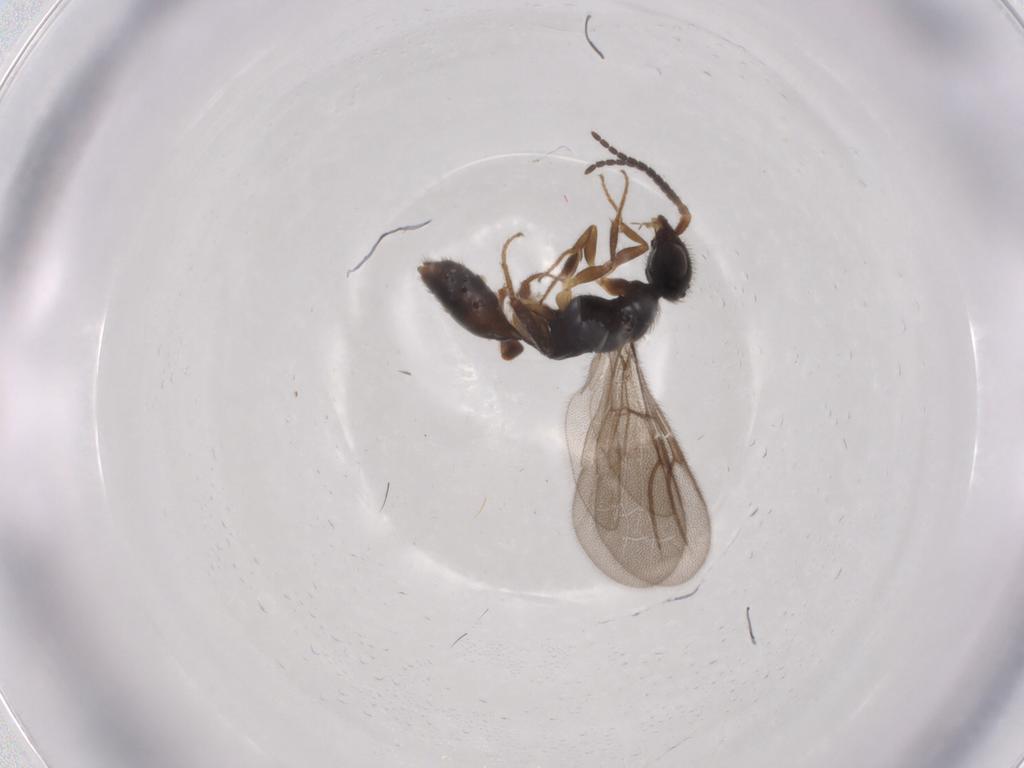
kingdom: Animalia
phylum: Arthropoda
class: Insecta
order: Hymenoptera
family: Bethylidae
